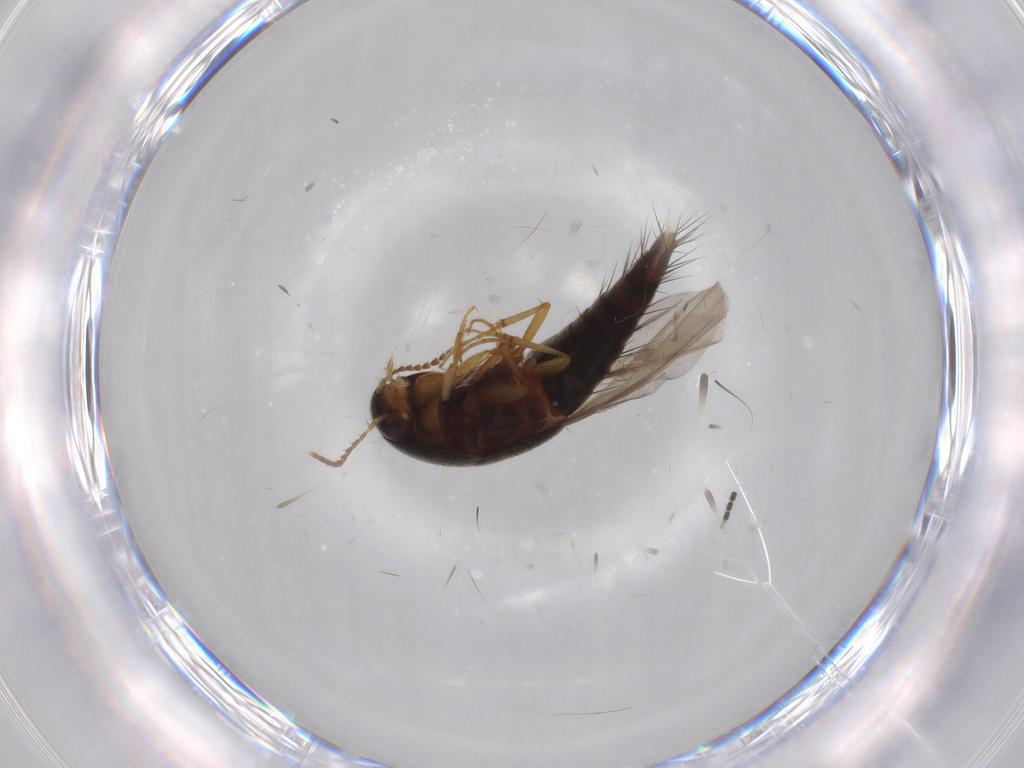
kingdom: Animalia
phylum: Arthropoda
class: Insecta
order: Coleoptera
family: Staphylinidae
